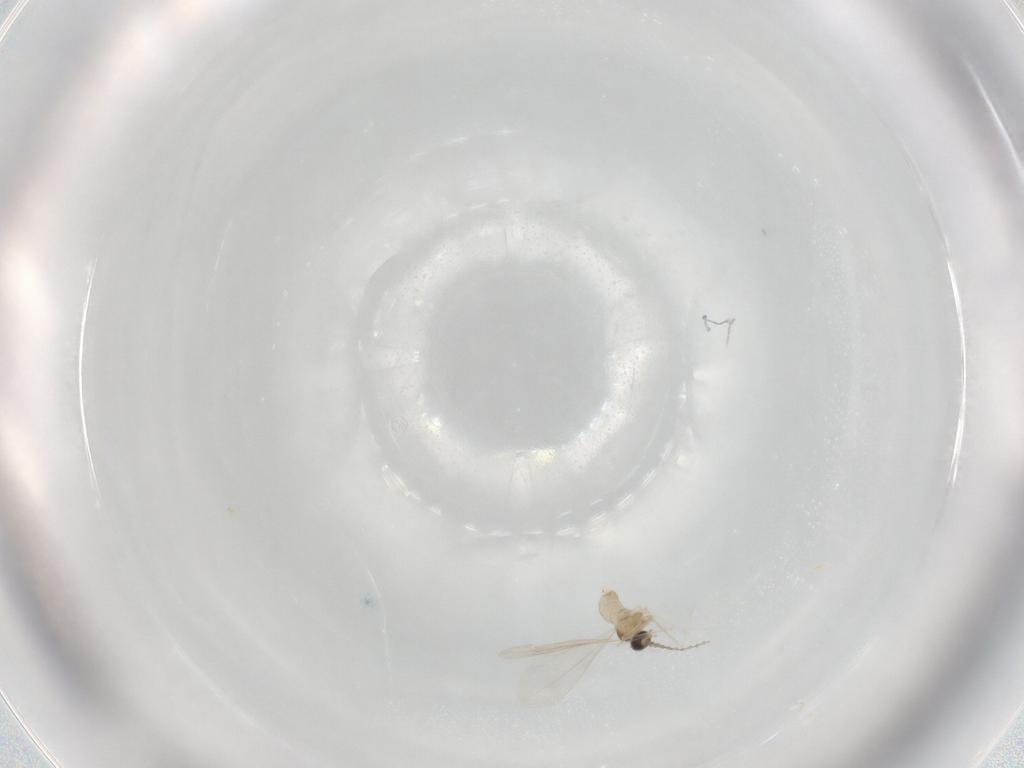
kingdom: Animalia
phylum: Arthropoda
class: Insecta
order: Diptera
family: Cecidomyiidae
